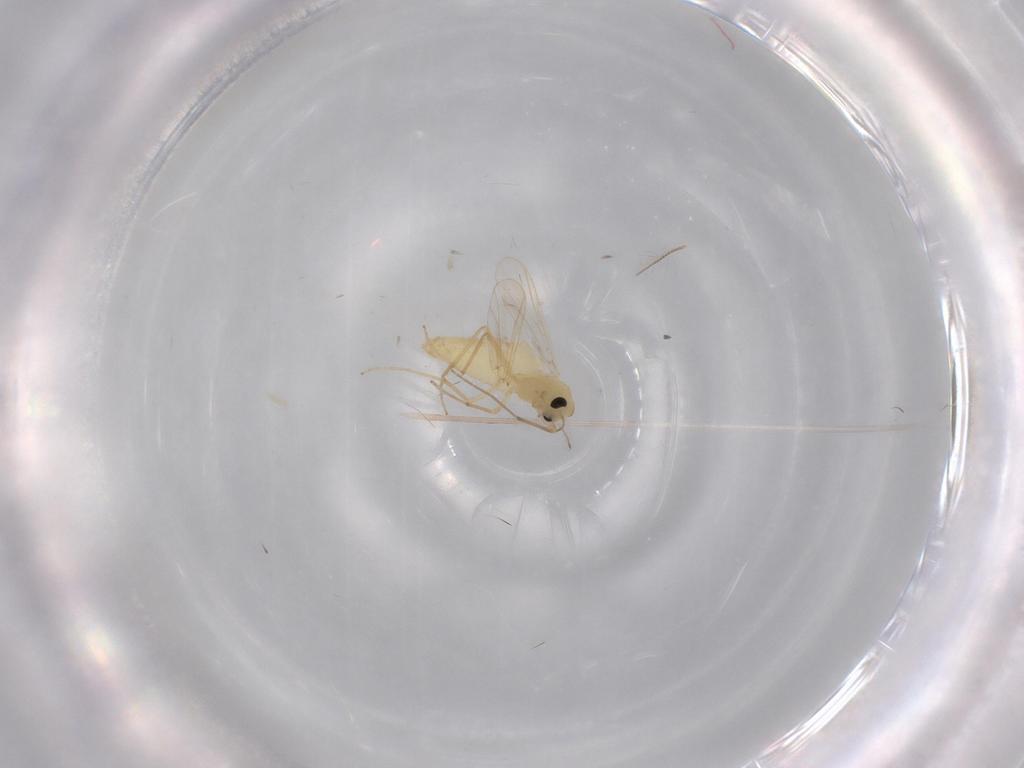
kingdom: Animalia
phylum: Arthropoda
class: Insecta
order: Diptera
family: Chironomidae
